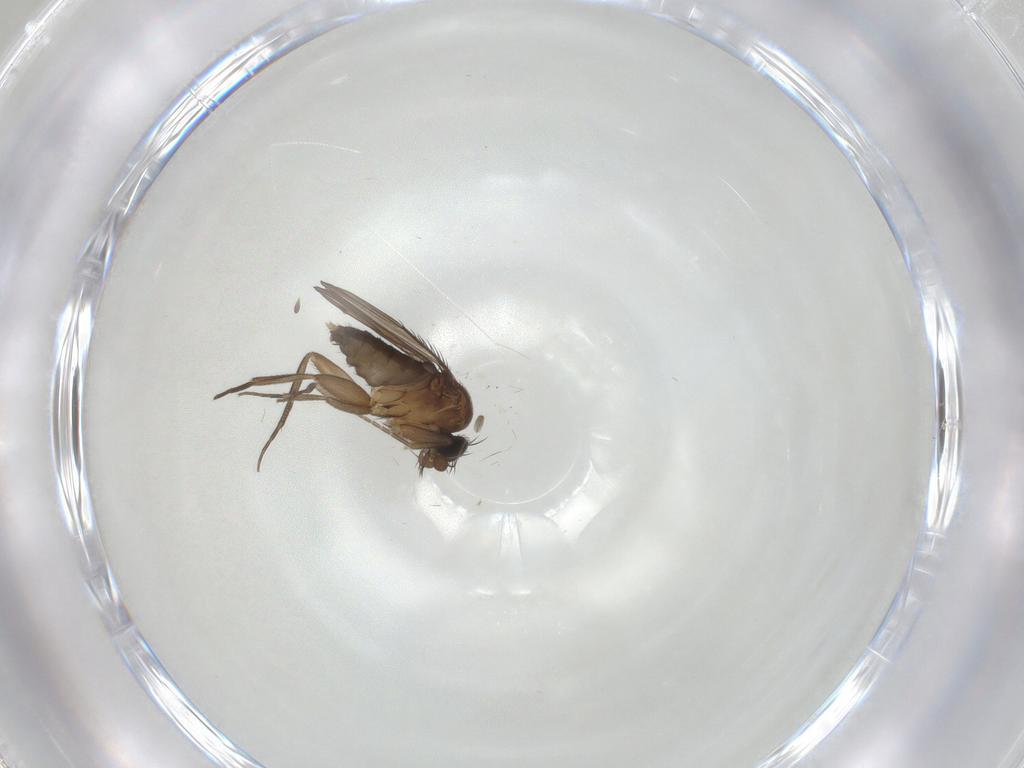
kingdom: Animalia
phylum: Arthropoda
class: Insecta
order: Diptera
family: Phoridae
